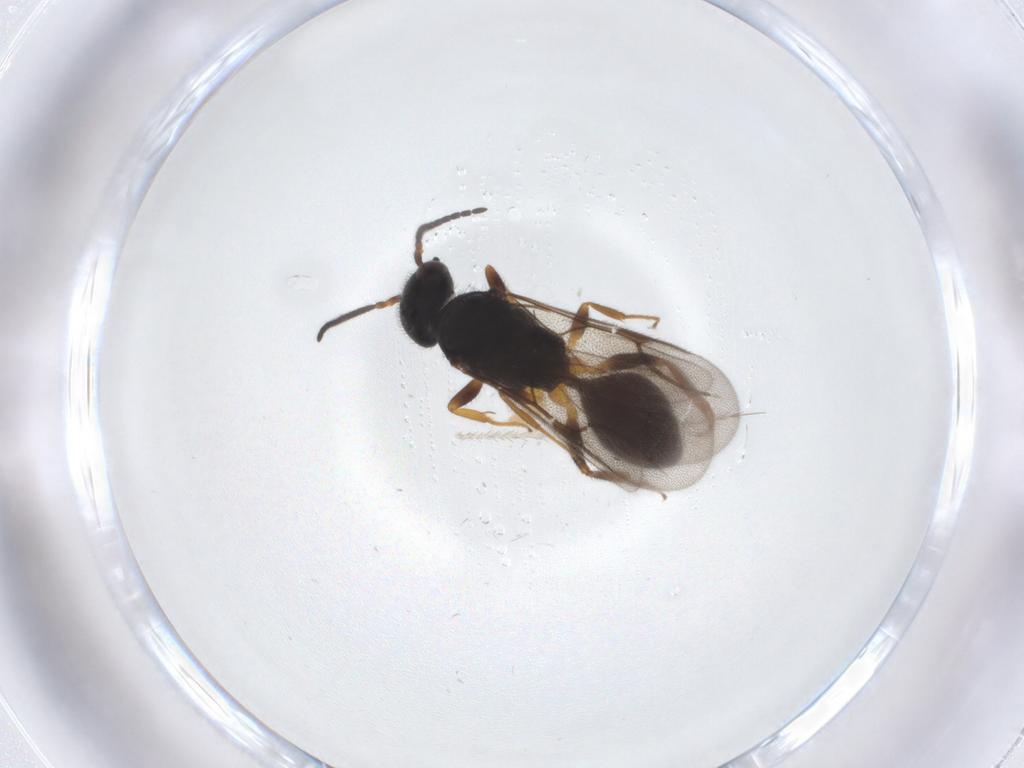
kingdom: Animalia
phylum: Arthropoda
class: Insecta
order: Hymenoptera
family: Bethylidae
